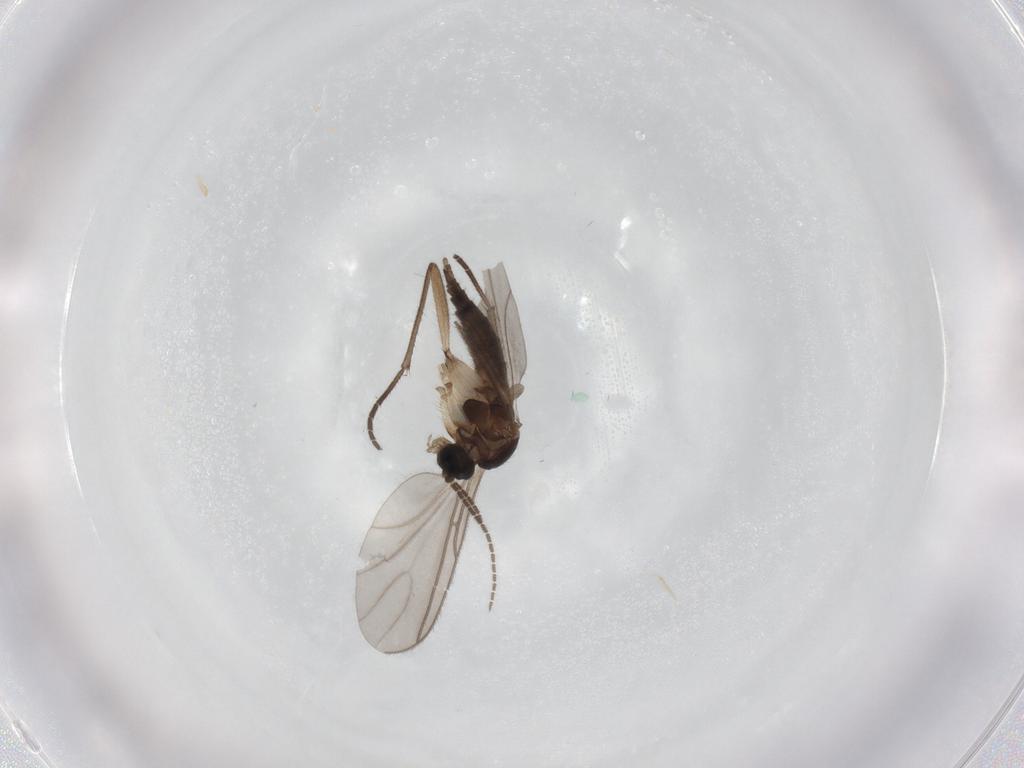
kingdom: Animalia
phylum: Arthropoda
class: Insecta
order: Diptera
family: Sciaridae
